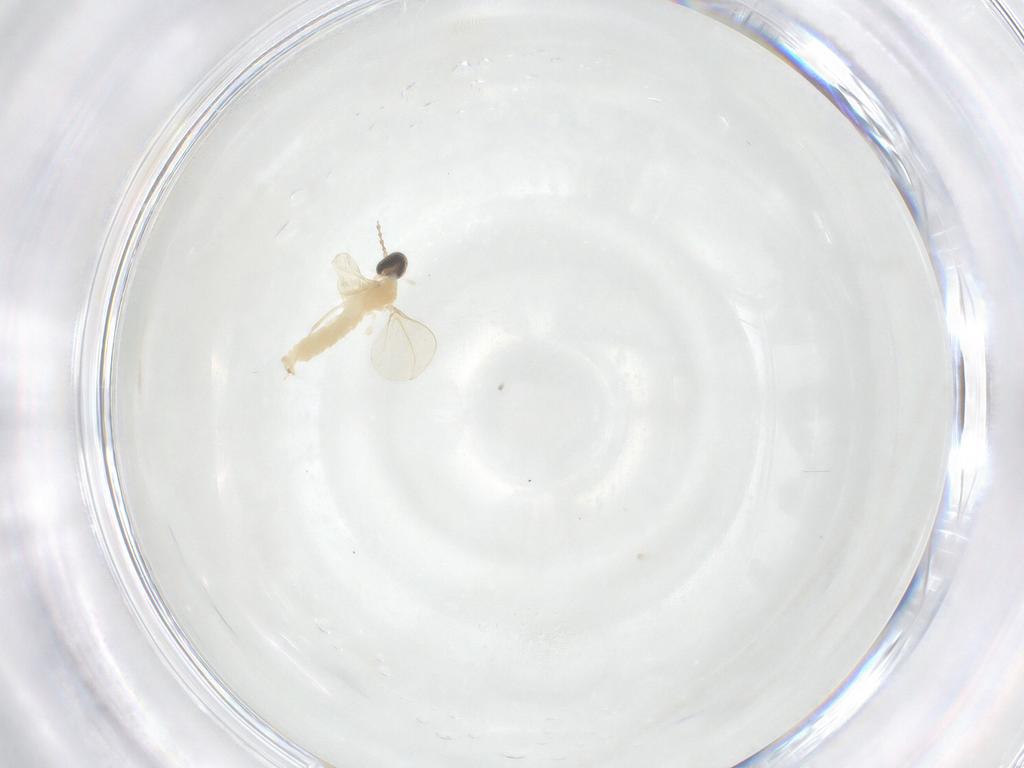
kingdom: Animalia
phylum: Arthropoda
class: Insecta
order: Diptera
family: Cecidomyiidae
